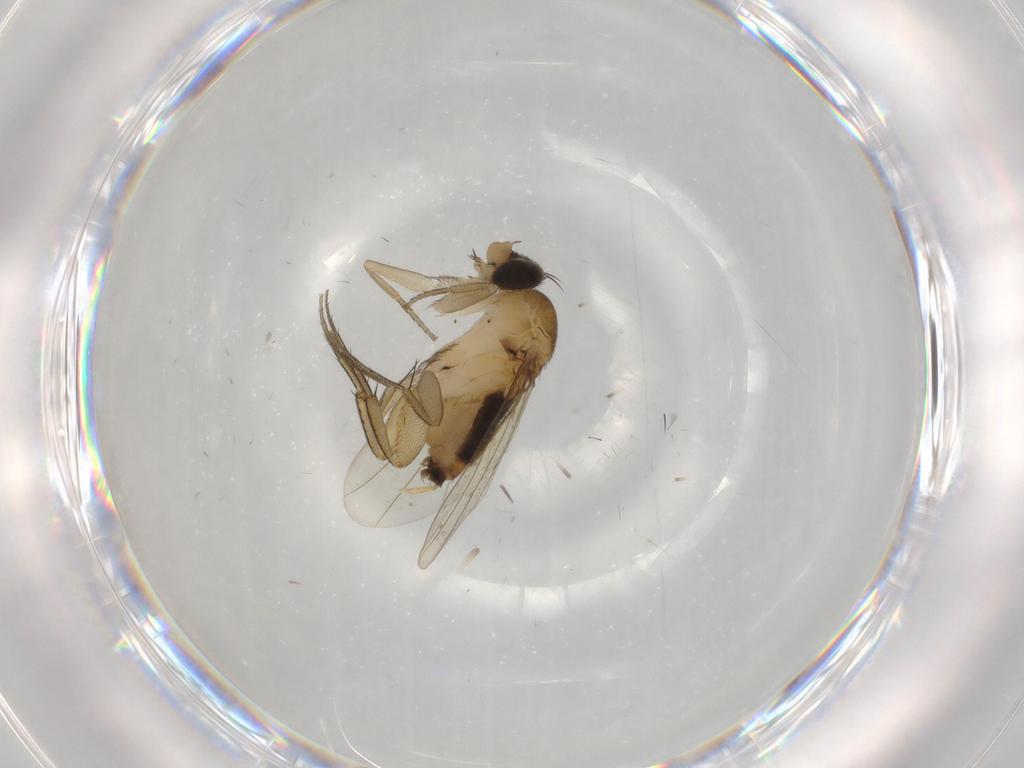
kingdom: Animalia
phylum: Arthropoda
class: Insecta
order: Diptera
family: Phoridae
